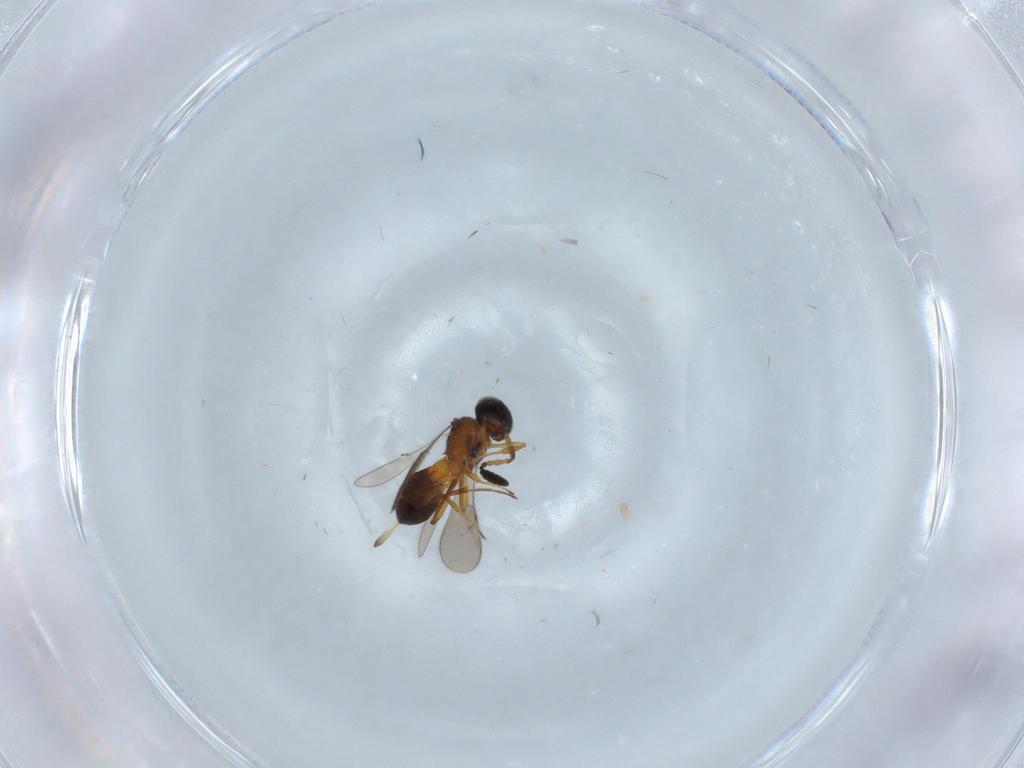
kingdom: Animalia
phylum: Arthropoda
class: Insecta
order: Hymenoptera
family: Scelionidae
